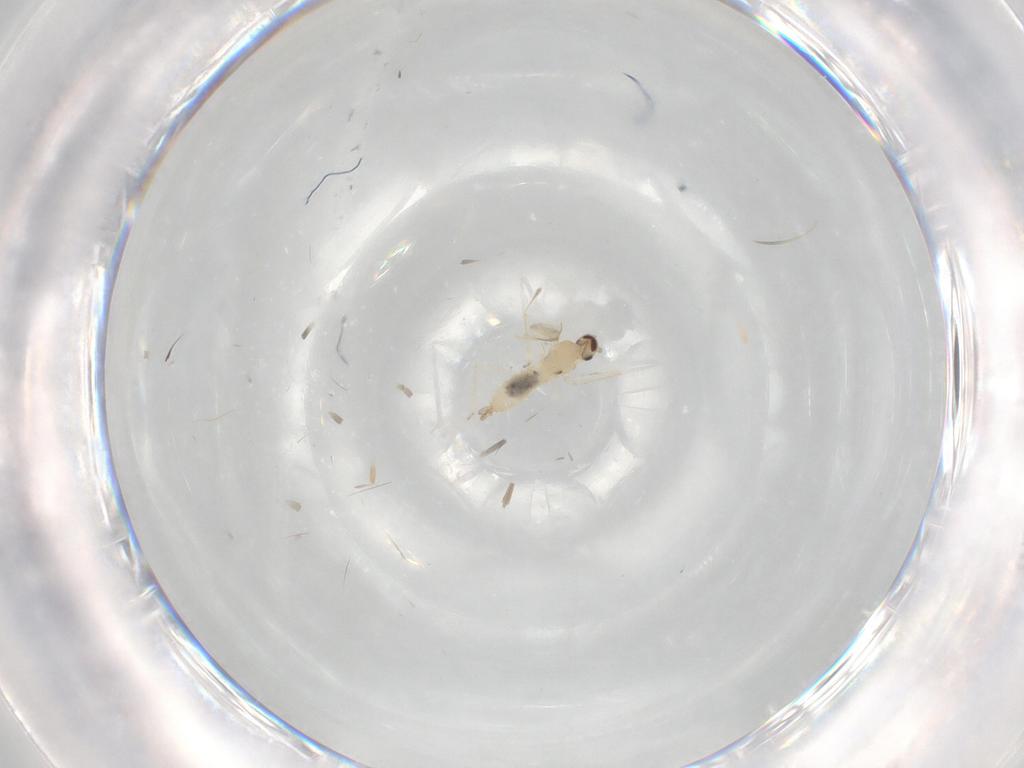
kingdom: Animalia
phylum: Arthropoda
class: Insecta
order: Diptera
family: Cecidomyiidae
